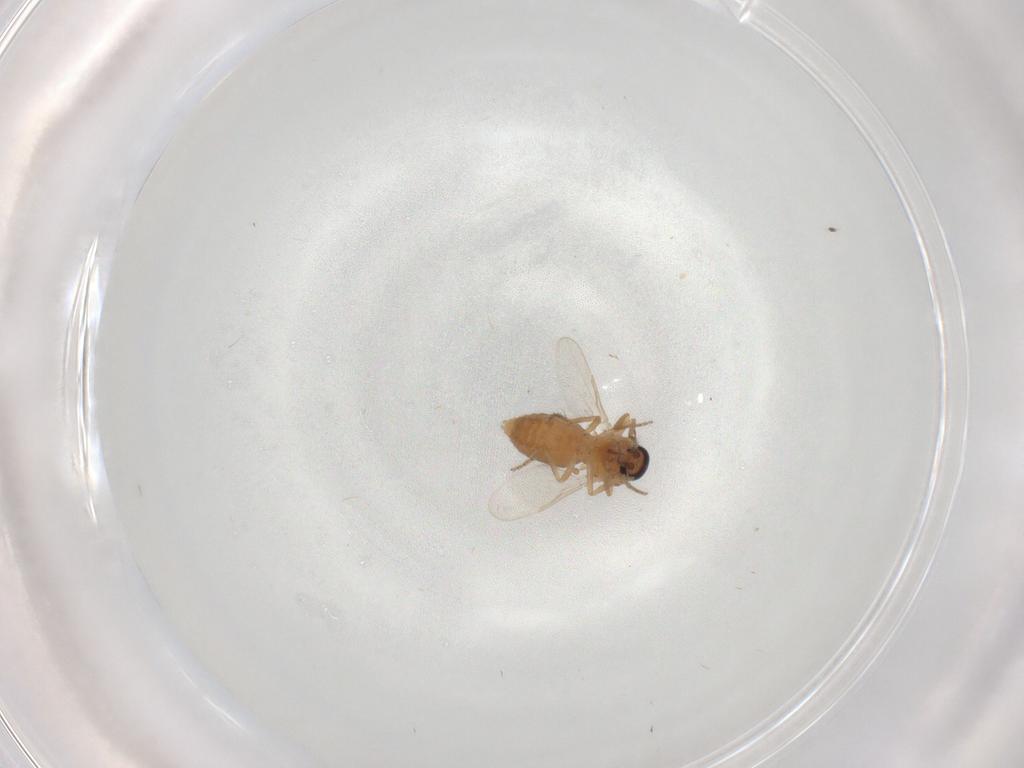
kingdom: Animalia
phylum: Arthropoda
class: Insecta
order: Diptera
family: Ceratopogonidae
